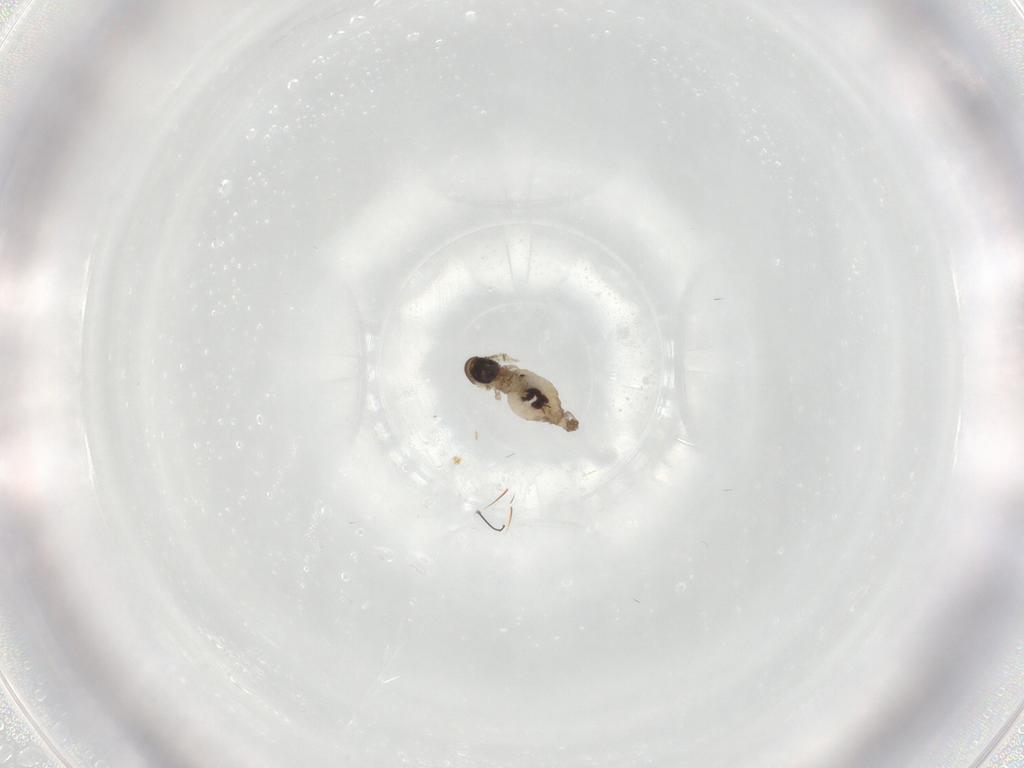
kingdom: Animalia
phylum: Arthropoda
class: Insecta
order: Diptera
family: Psychodidae
